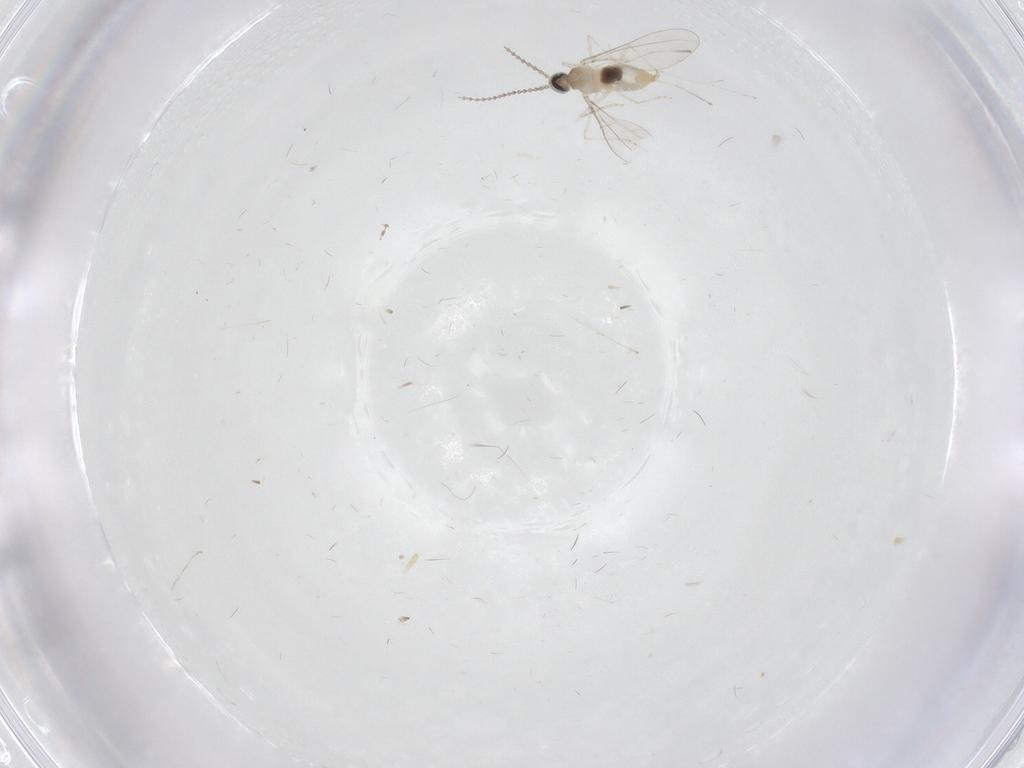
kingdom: Animalia
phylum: Arthropoda
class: Insecta
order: Diptera
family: Cecidomyiidae
